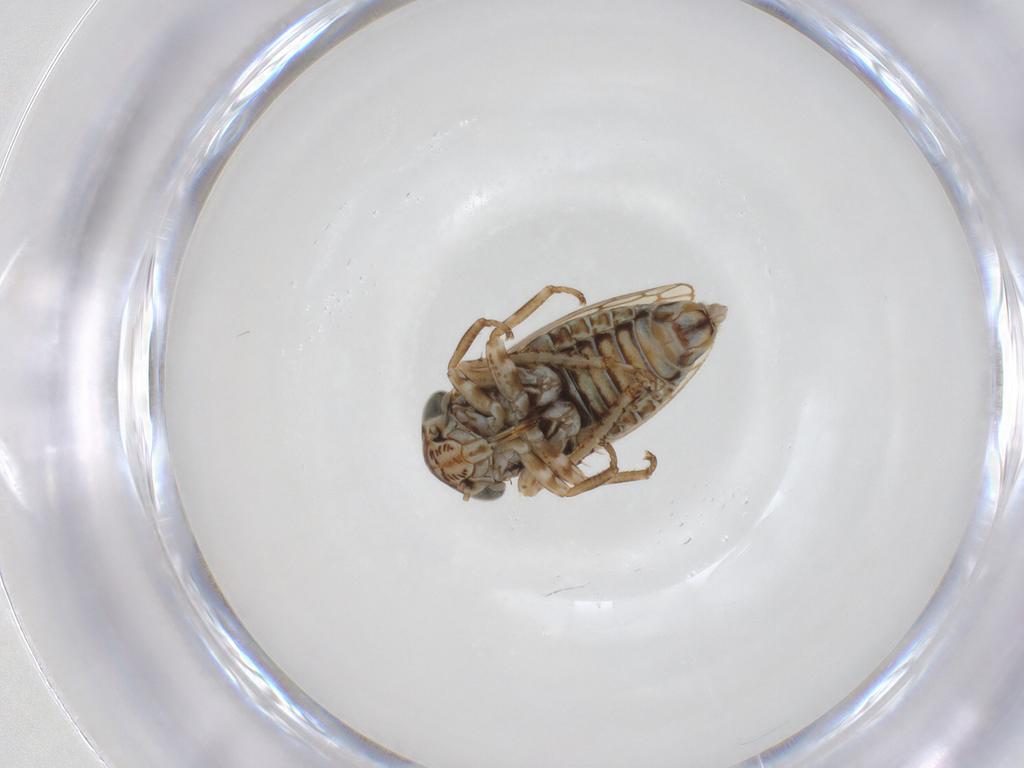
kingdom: Animalia
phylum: Arthropoda
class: Insecta
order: Hemiptera
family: Cicadellidae
